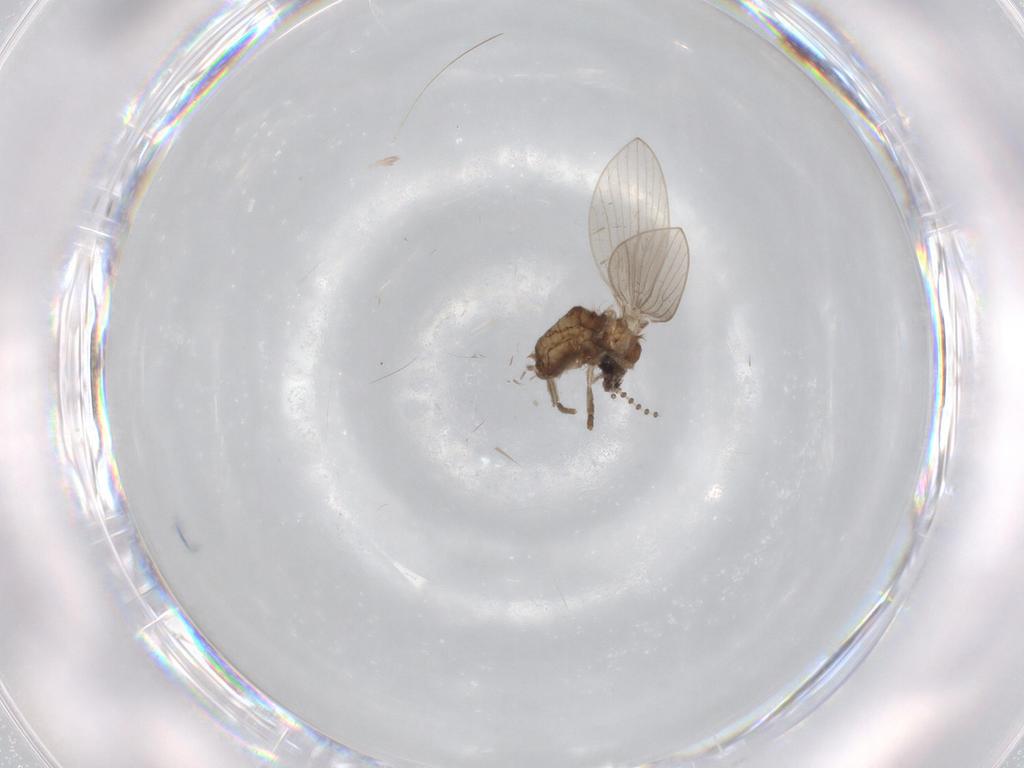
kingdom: Animalia
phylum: Arthropoda
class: Insecta
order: Diptera
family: Psychodidae
